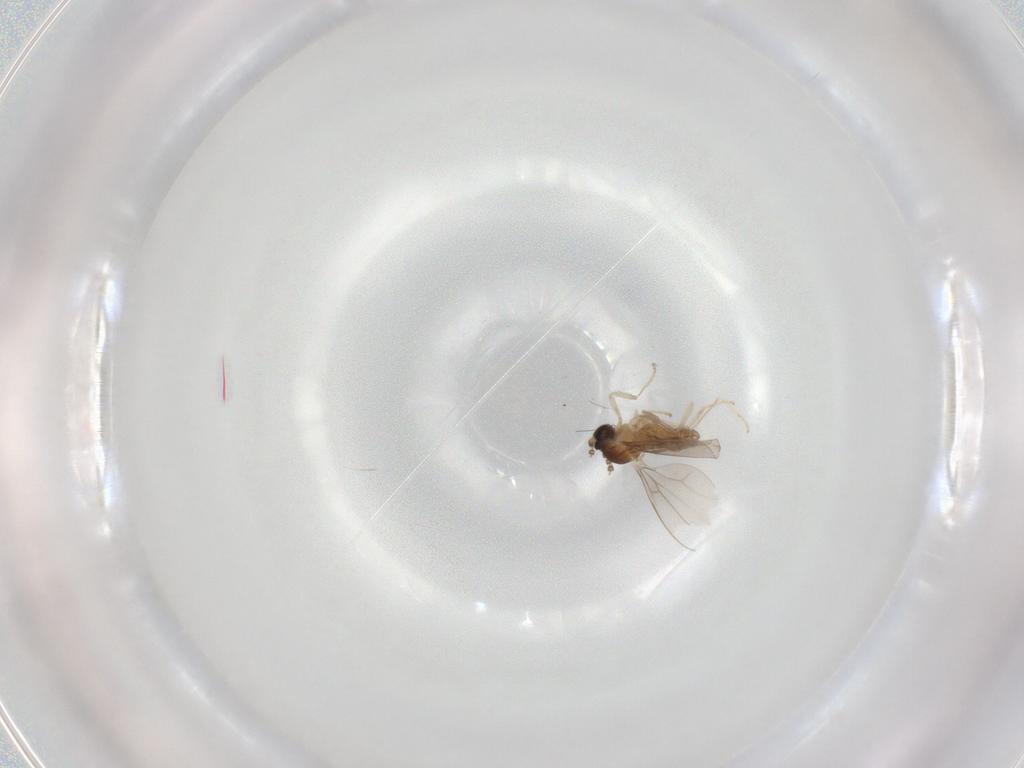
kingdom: Animalia
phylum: Arthropoda
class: Insecta
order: Diptera
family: Cecidomyiidae
